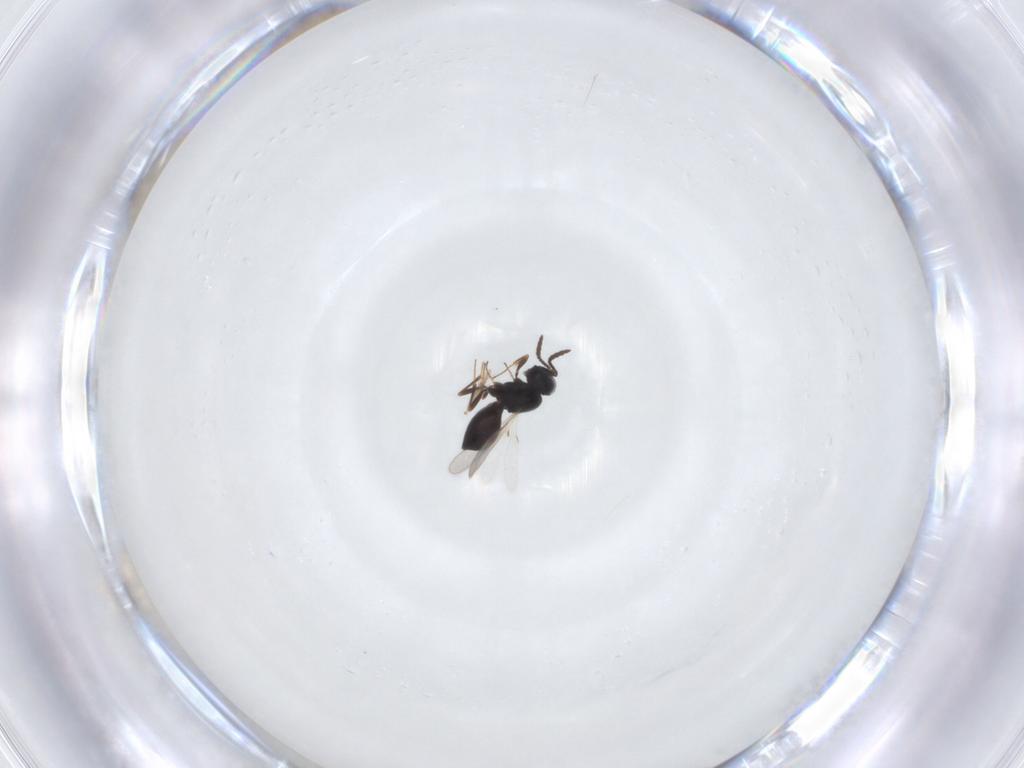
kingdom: Animalia
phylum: Arthropoda
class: Insecta
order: Hymenoptera
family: Scelionidae
